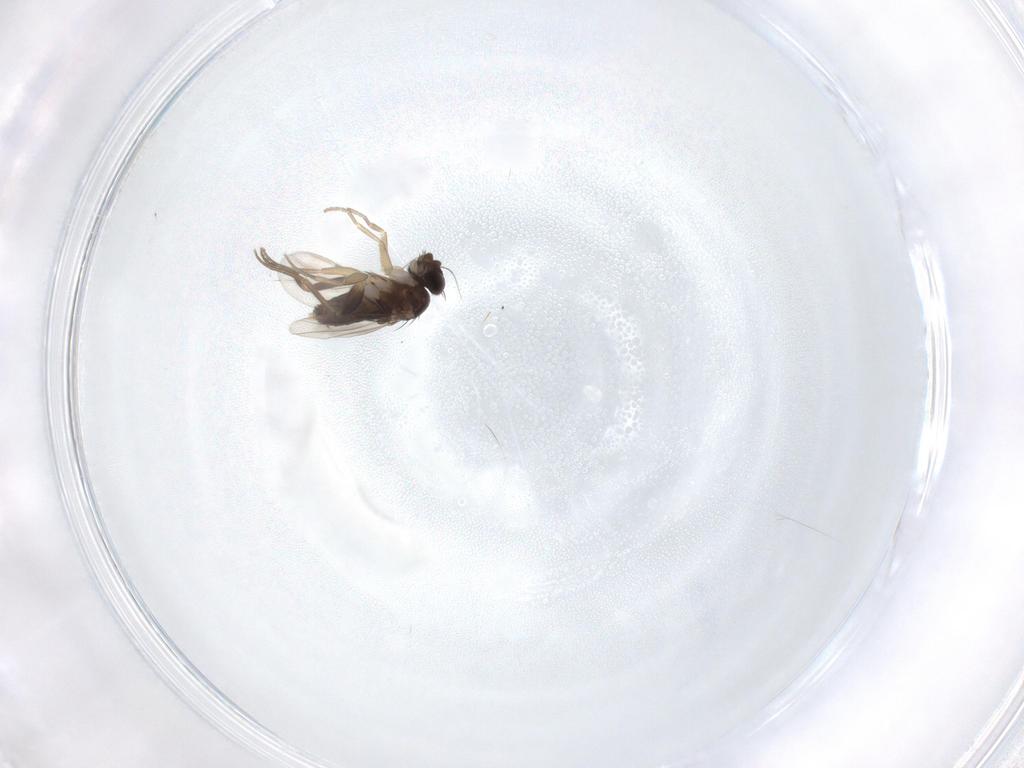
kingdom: Animalia
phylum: Arthropoda
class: Insecta
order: Diptera
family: Phoridae
